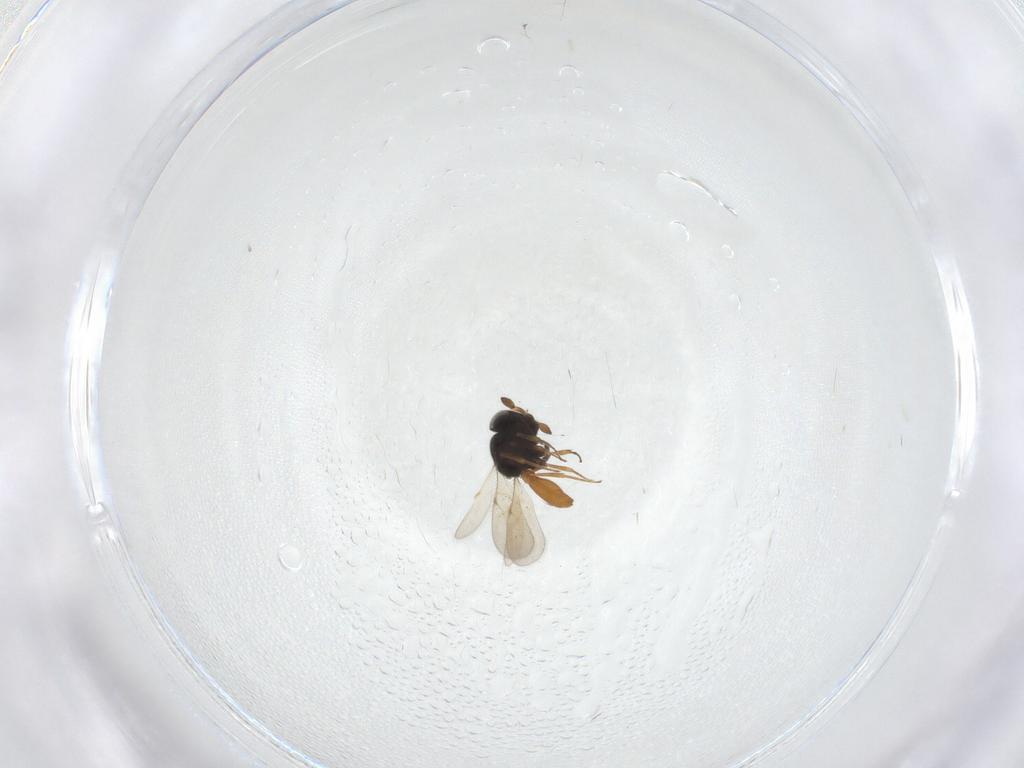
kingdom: Animalia
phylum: Arthropoda
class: Insecta
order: Hymenoptera
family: Scelionidae
